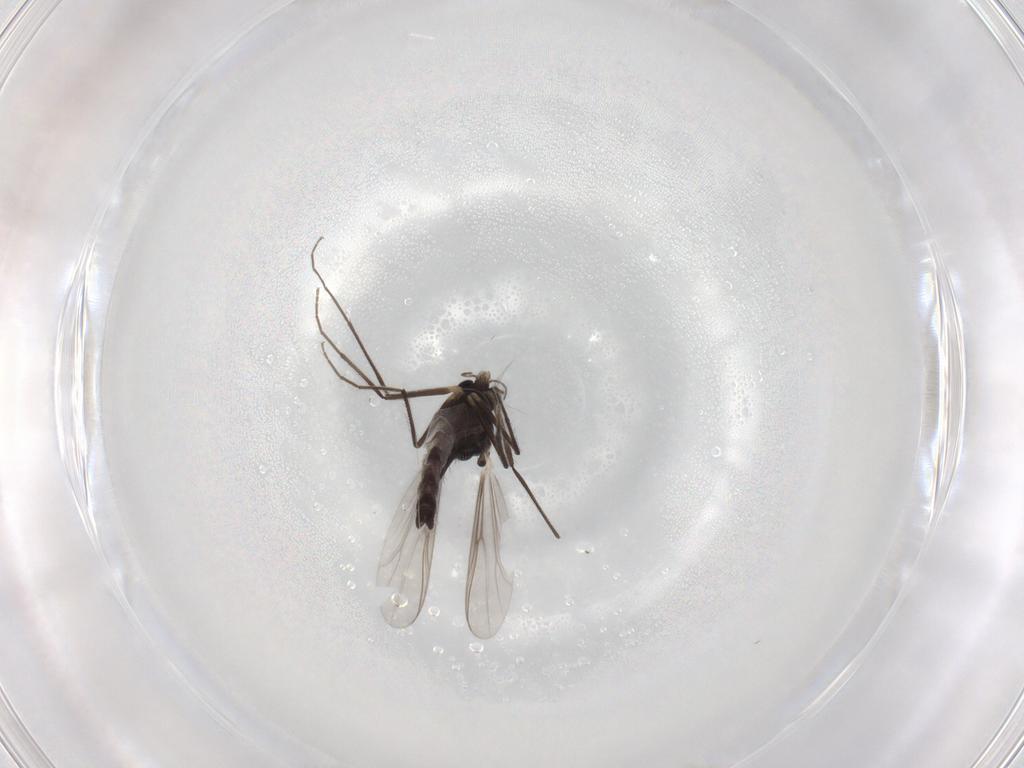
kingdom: Animalia
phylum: Arthropoda
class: Insecta
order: Diptera
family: Chironomidae
